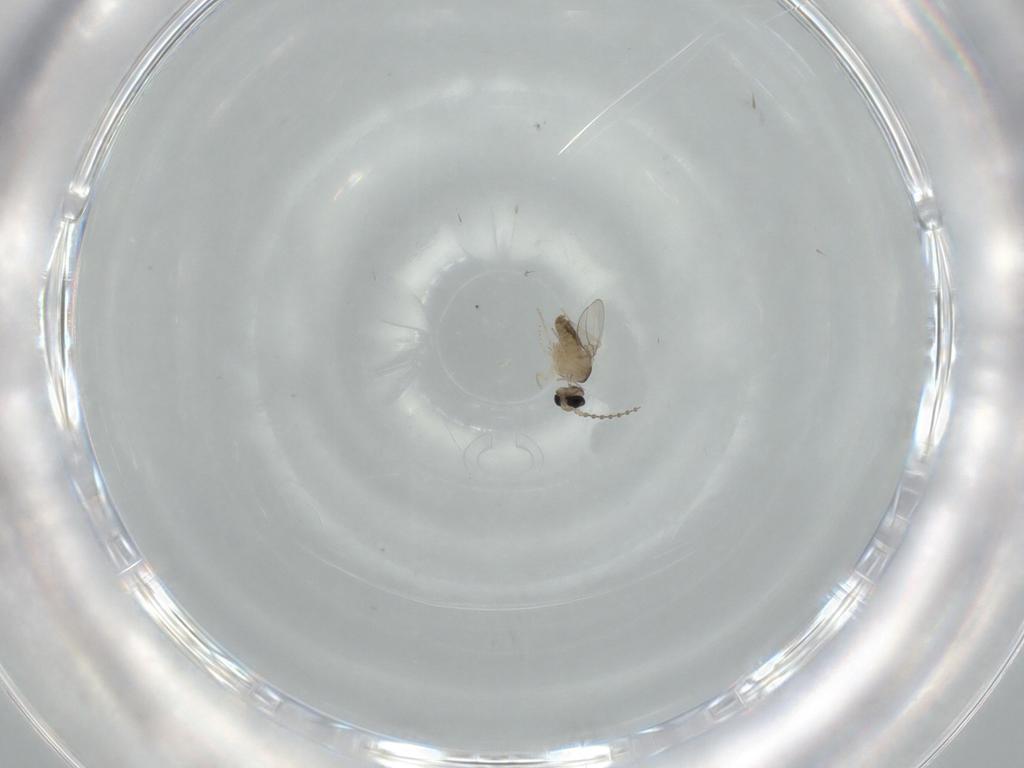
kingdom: Animalia
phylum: Arthropoda
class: Insecta
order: Diptera
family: Cecidomyiidae
